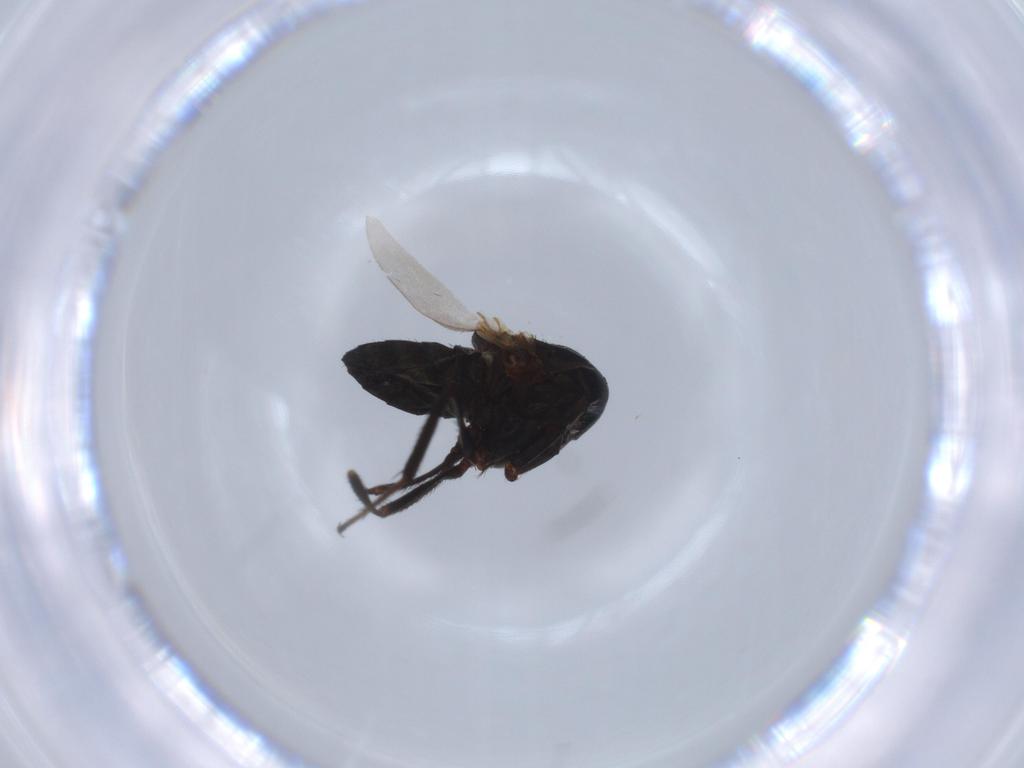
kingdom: Animalia
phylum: Arthropoda
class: Insecta
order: Diptera
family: Ephydridae
